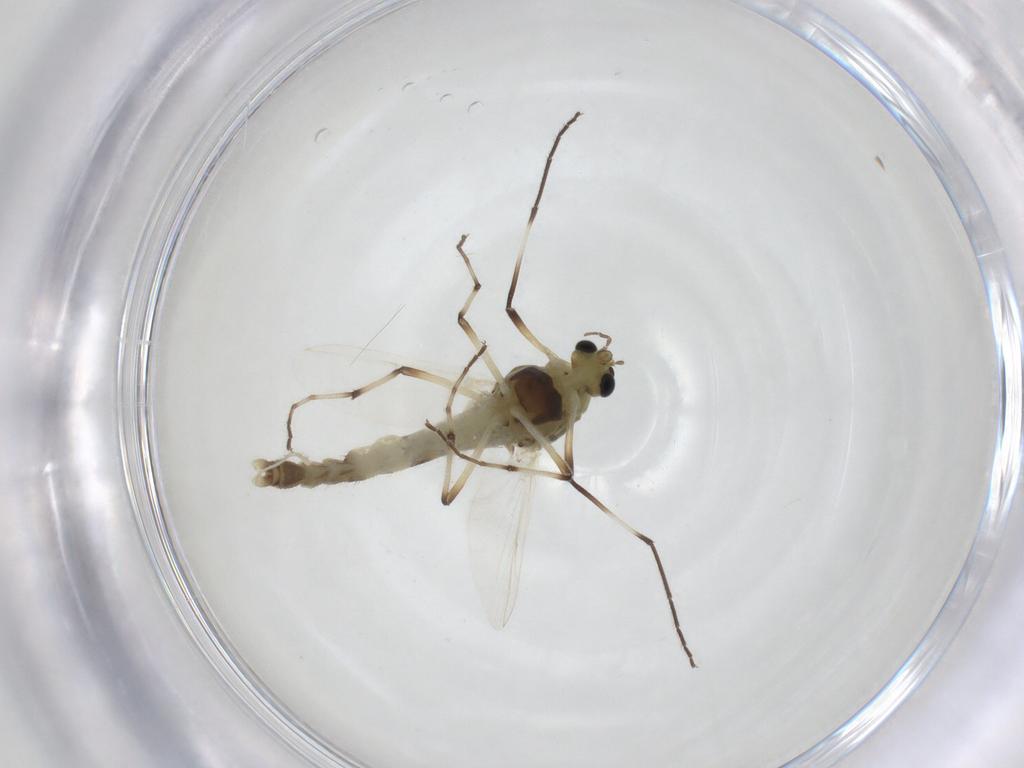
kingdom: Animalia
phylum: Arthropoda
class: Insecta
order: Diptera
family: Chironomidae
